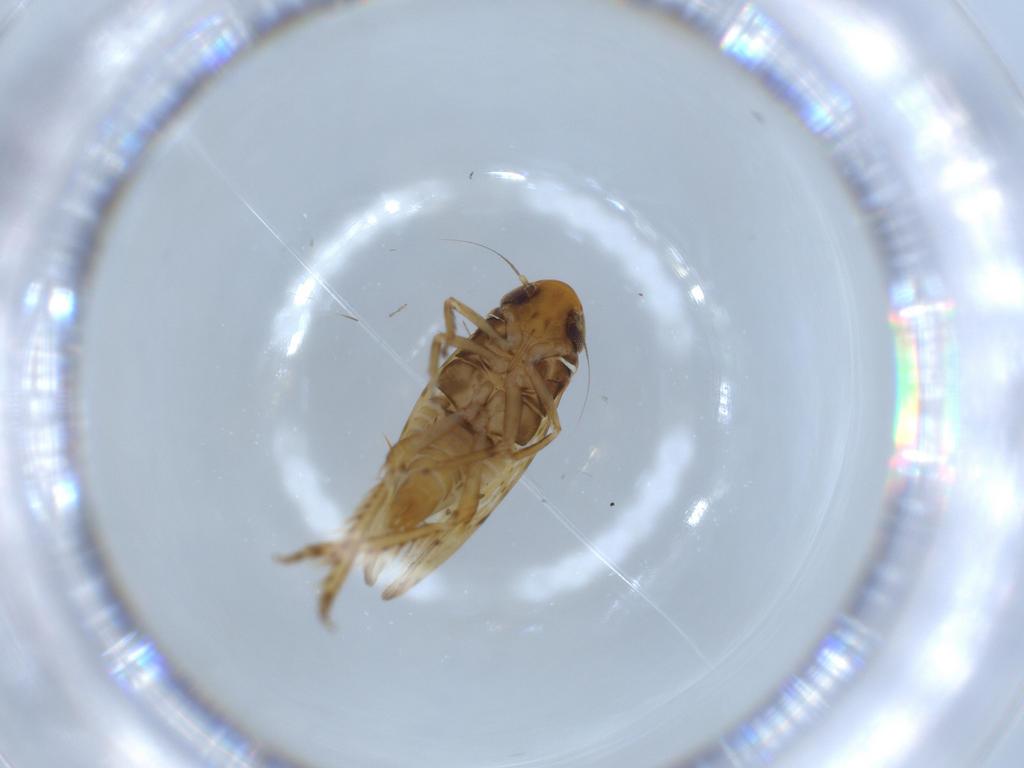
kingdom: Animalia
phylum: Arthropoda
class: Insecta
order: Hemiptera
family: Cicadellidae
